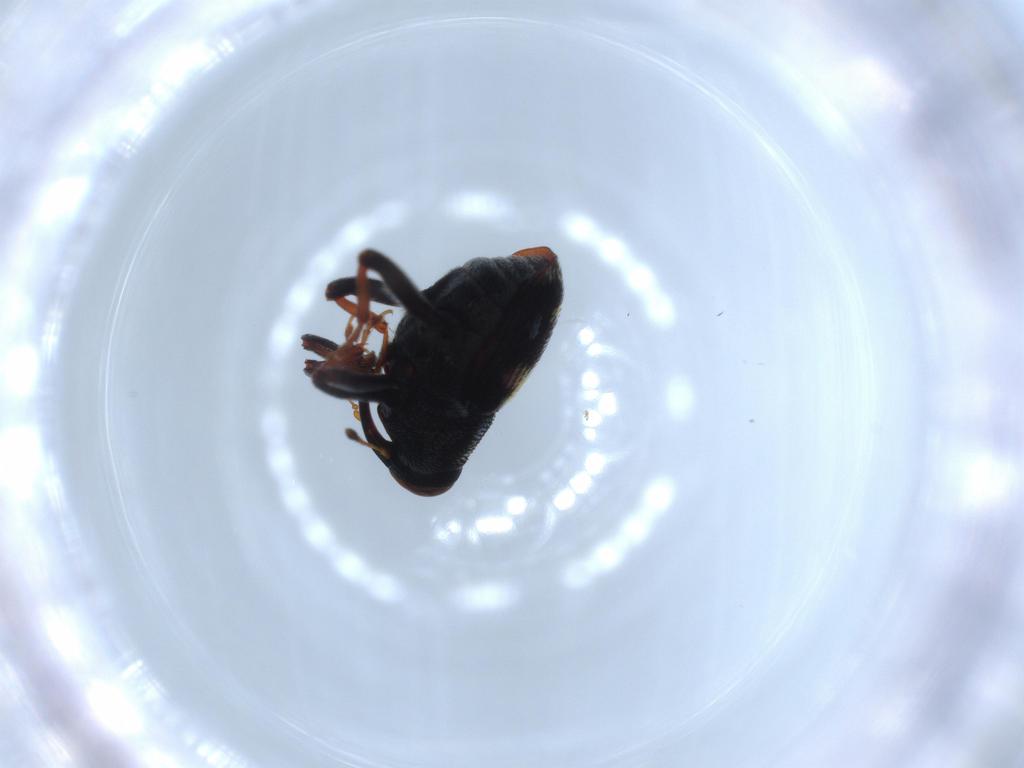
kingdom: Animalia
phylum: Arthropoda
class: Insecta
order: Coleoptera
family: Curculionidae
